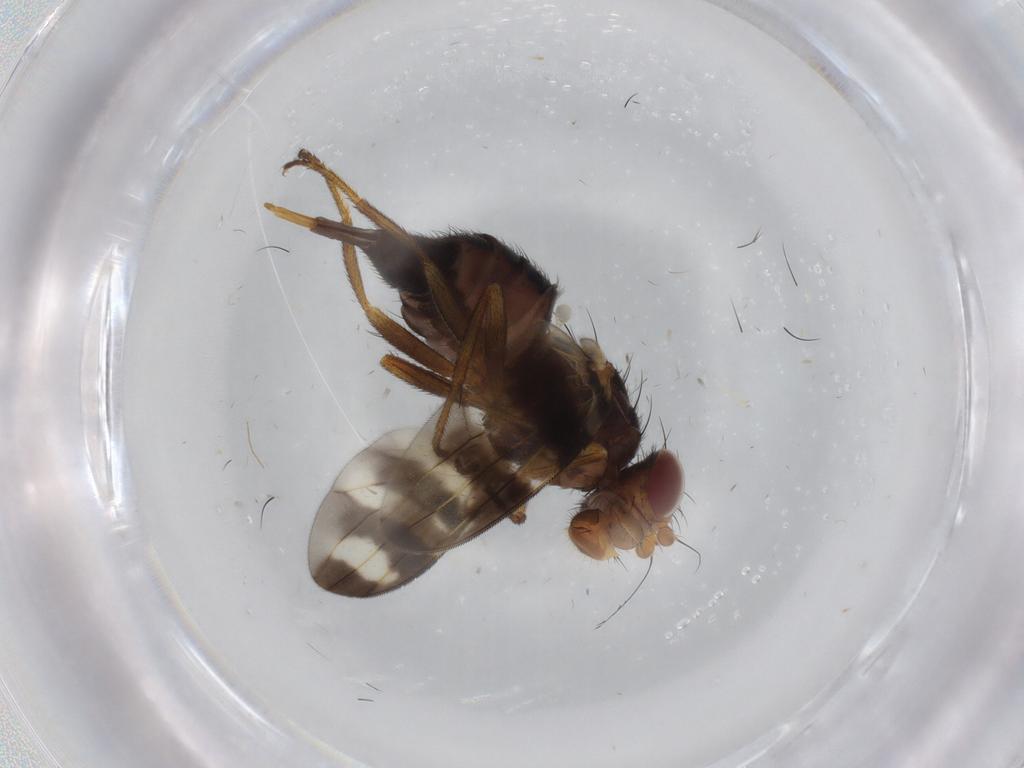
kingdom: Animalia
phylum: Arthropoda
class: Insecta
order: Diptera
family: Ulidiidae
